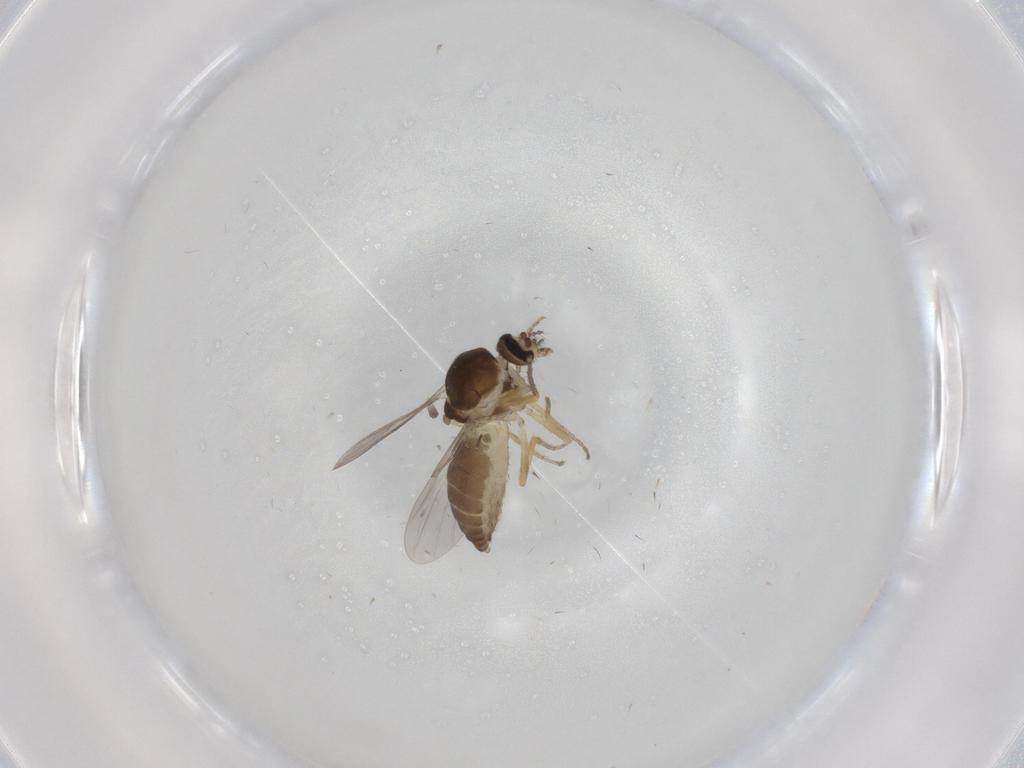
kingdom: Animalia
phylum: Arthropoda
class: Insecta
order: Diptera
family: Ceratopogonidae
